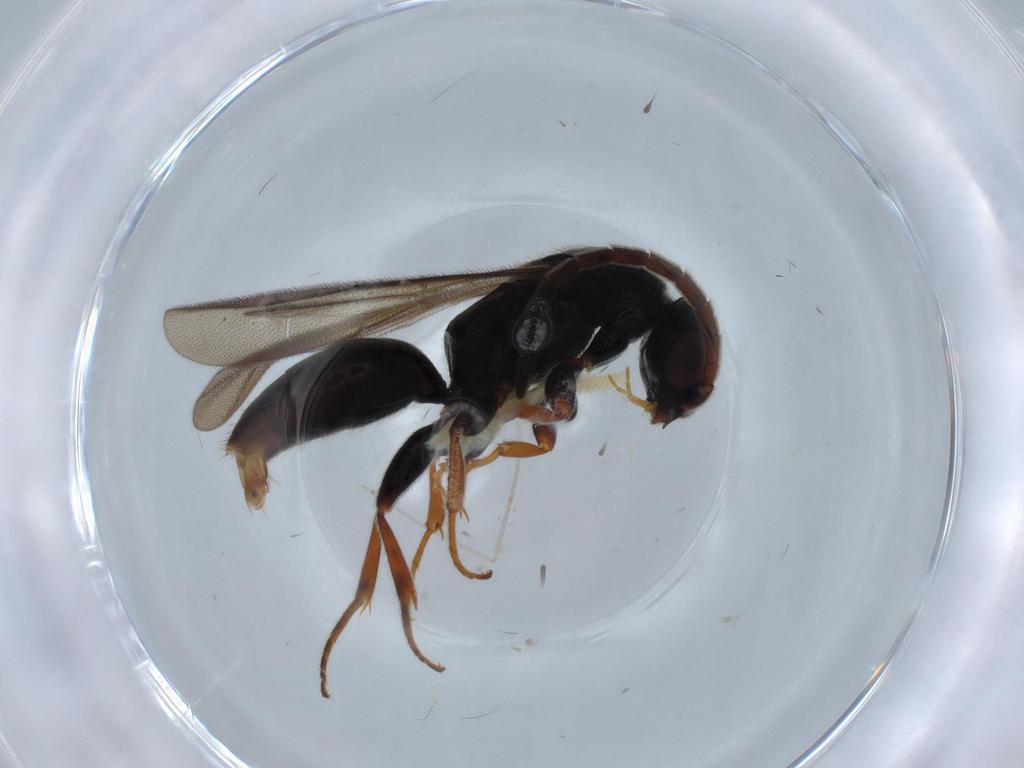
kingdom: Animalia
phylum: Arthropoda
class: Insecta
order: Hymenoptera
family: Bethylidae
